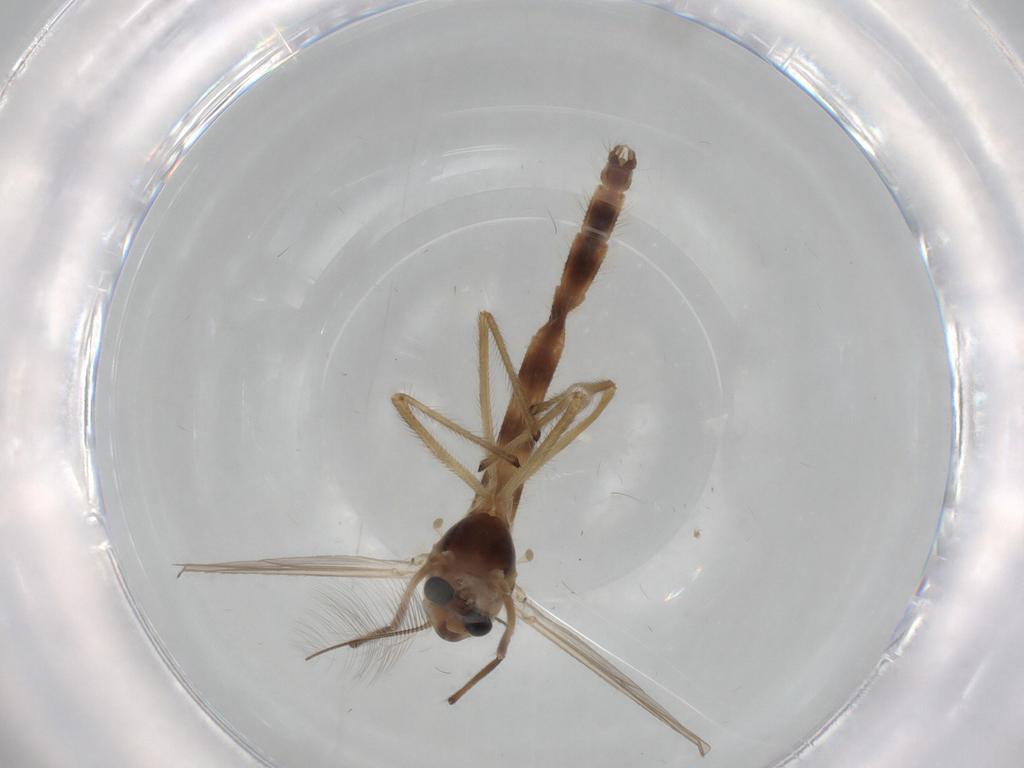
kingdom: Animalia
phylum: Arthropoda
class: Insecta
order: Diptera
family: Chironomidae
